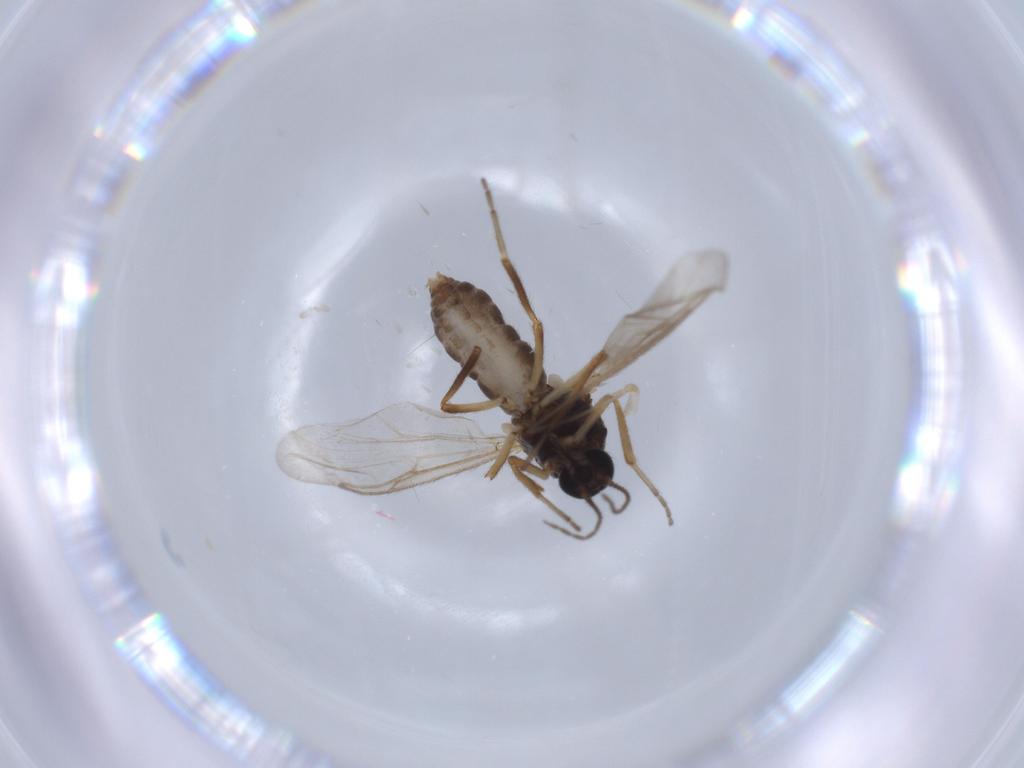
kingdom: Animalia
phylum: Arthropoda
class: Insecta
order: Diptera
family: Ceratopogonidae
